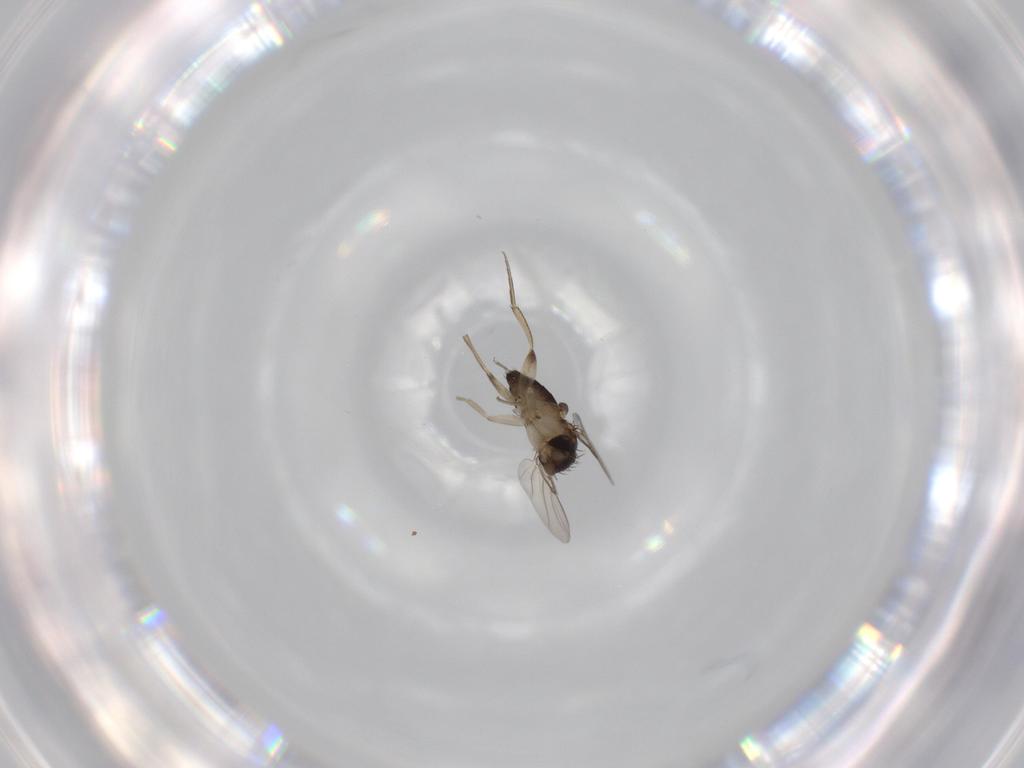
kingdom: Animalia
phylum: Arthropoda
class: Insecta
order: Diptera
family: Phoridae
